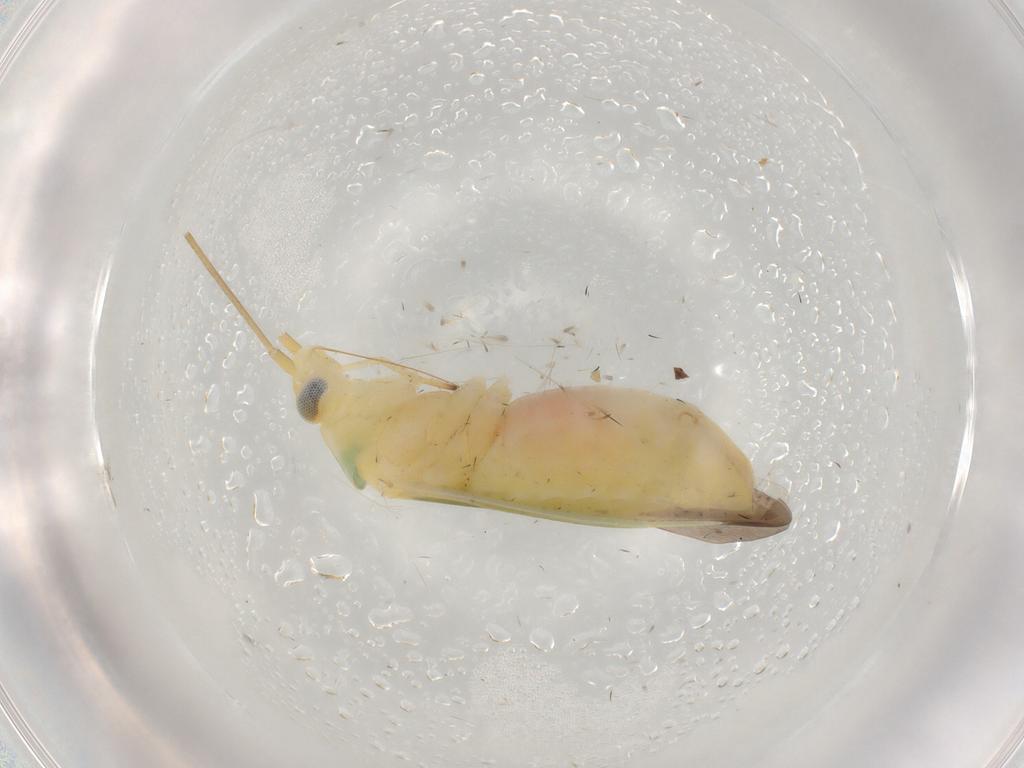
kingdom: Animalia
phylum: Arthropoda
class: Insecta
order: Hemiptera
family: Miridae
